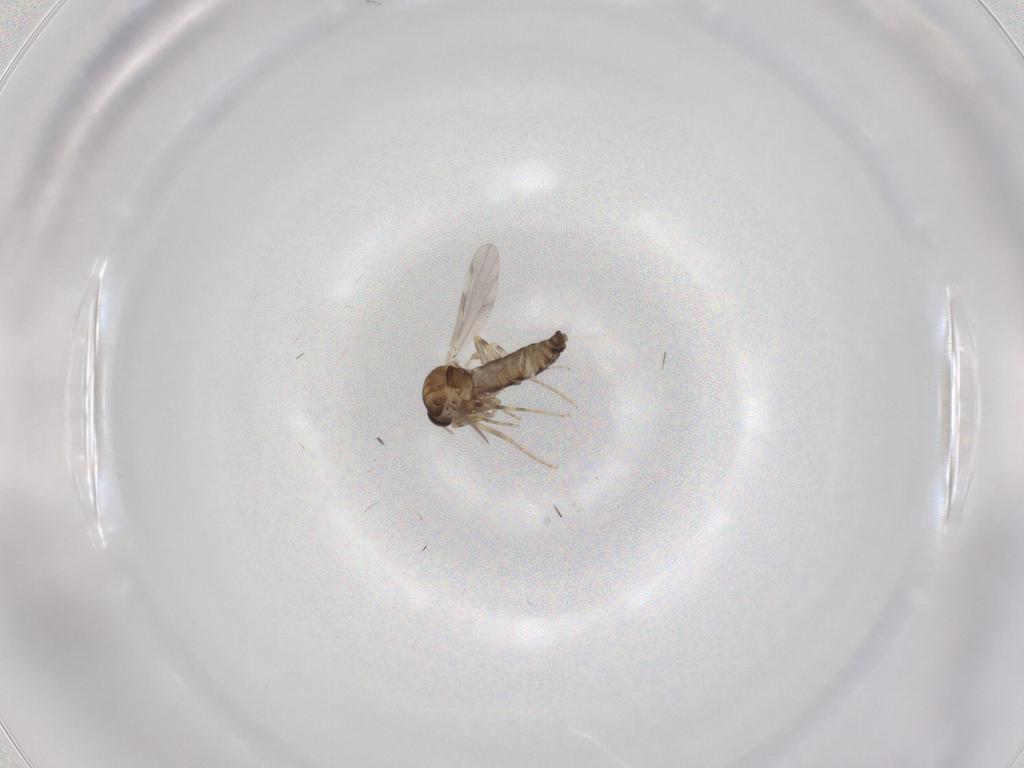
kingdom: Animalia
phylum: Arthropoda
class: Insecta
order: Diptera
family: Ceratopogonidae
